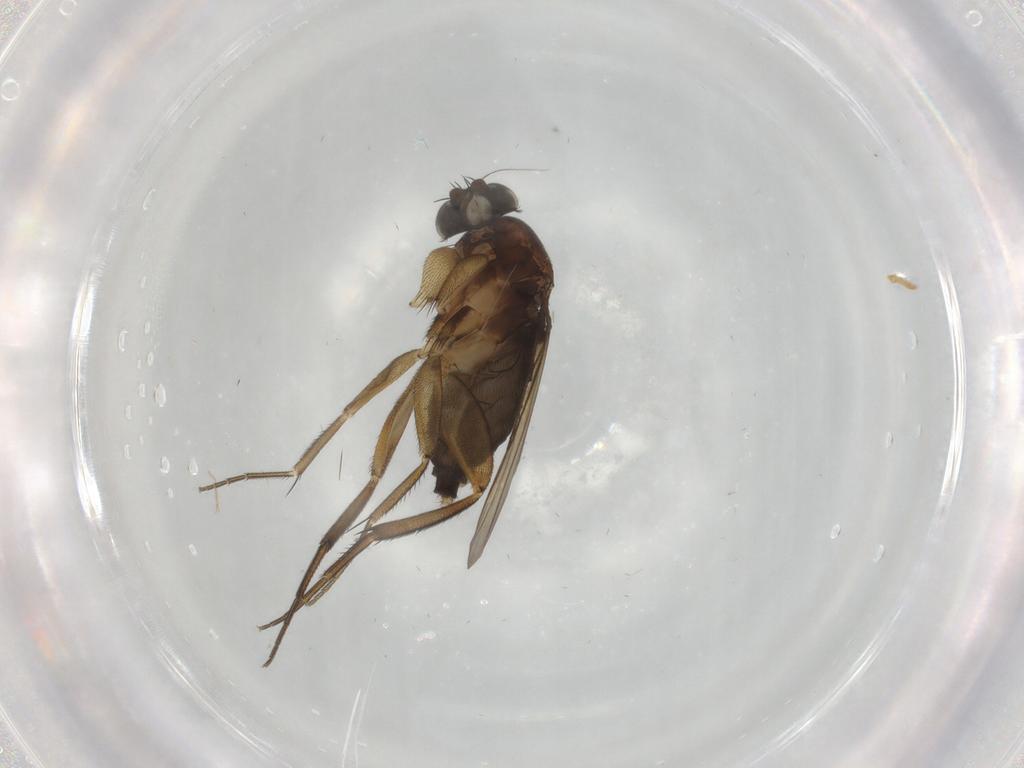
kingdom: Animalia
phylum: Arthropoda
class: Insecta
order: Diptera
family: Phoridae
